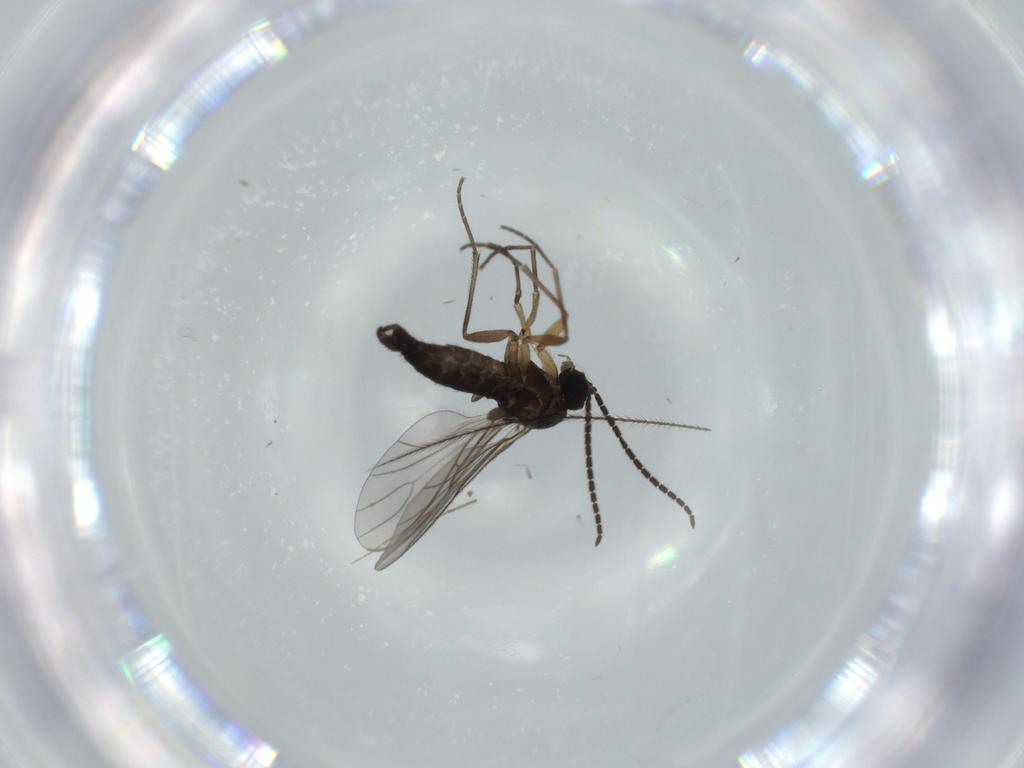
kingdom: Animalia
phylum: Arthropoda
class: Insecta
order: Diptera
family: Sciaridae
